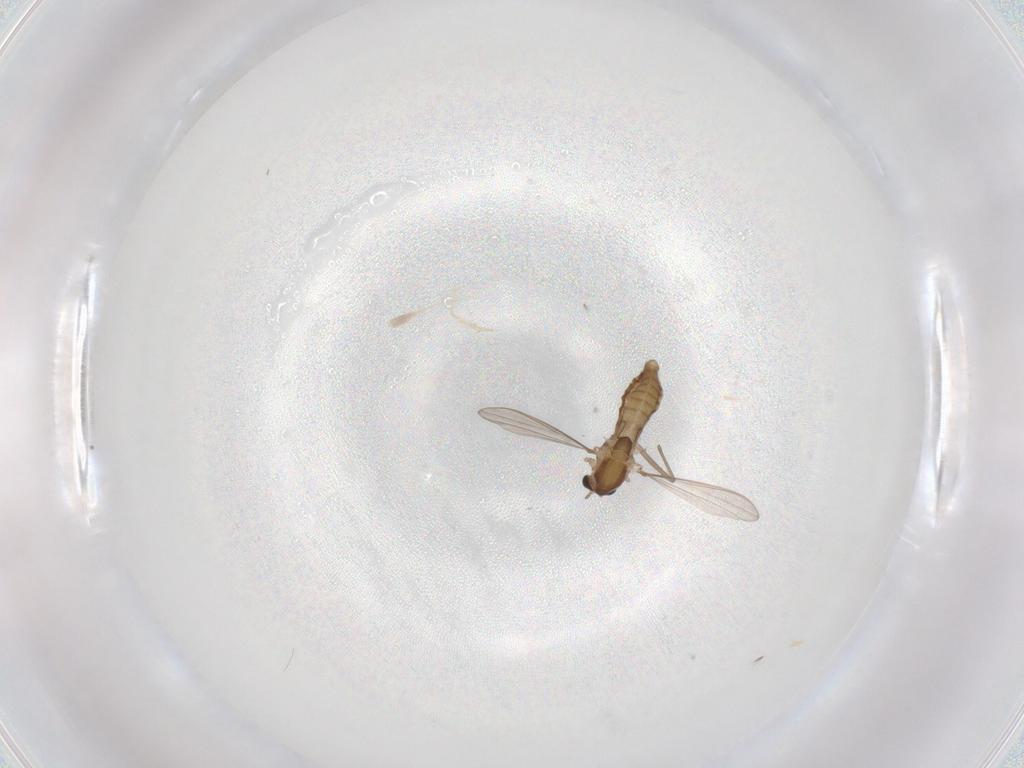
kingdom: Animalia
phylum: Arthropoda
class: Insecta
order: Diptera
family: Chironomidae
